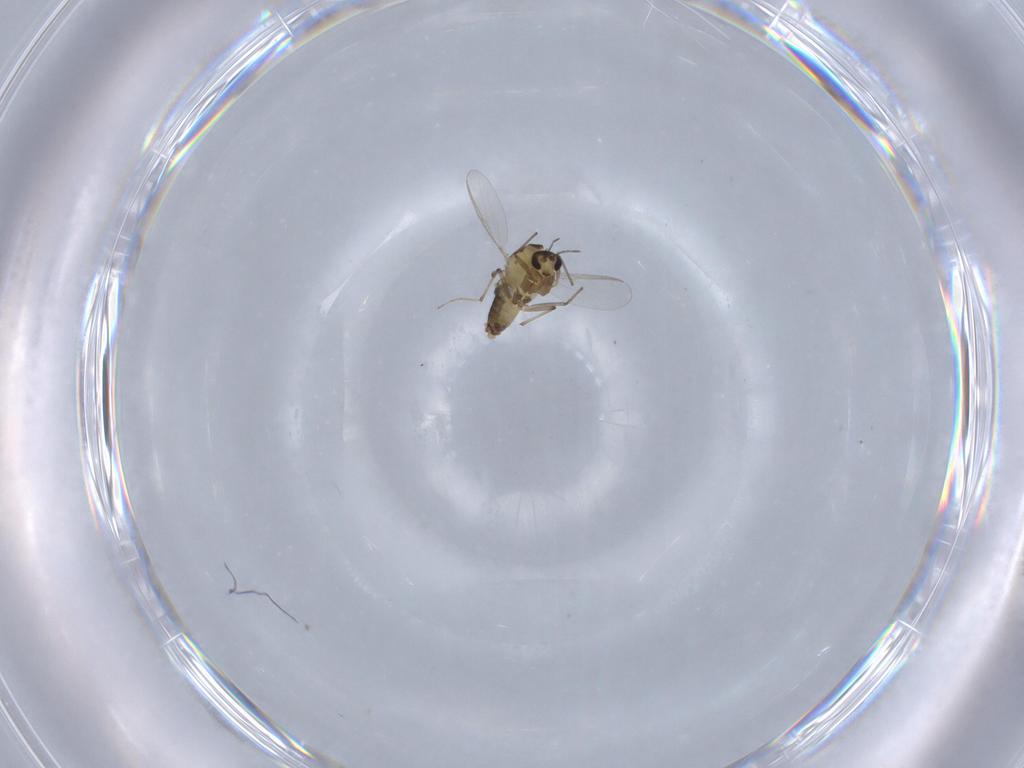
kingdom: Animalia
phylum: Arthropoda
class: Insecta
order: Diptera
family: Chironomidae
